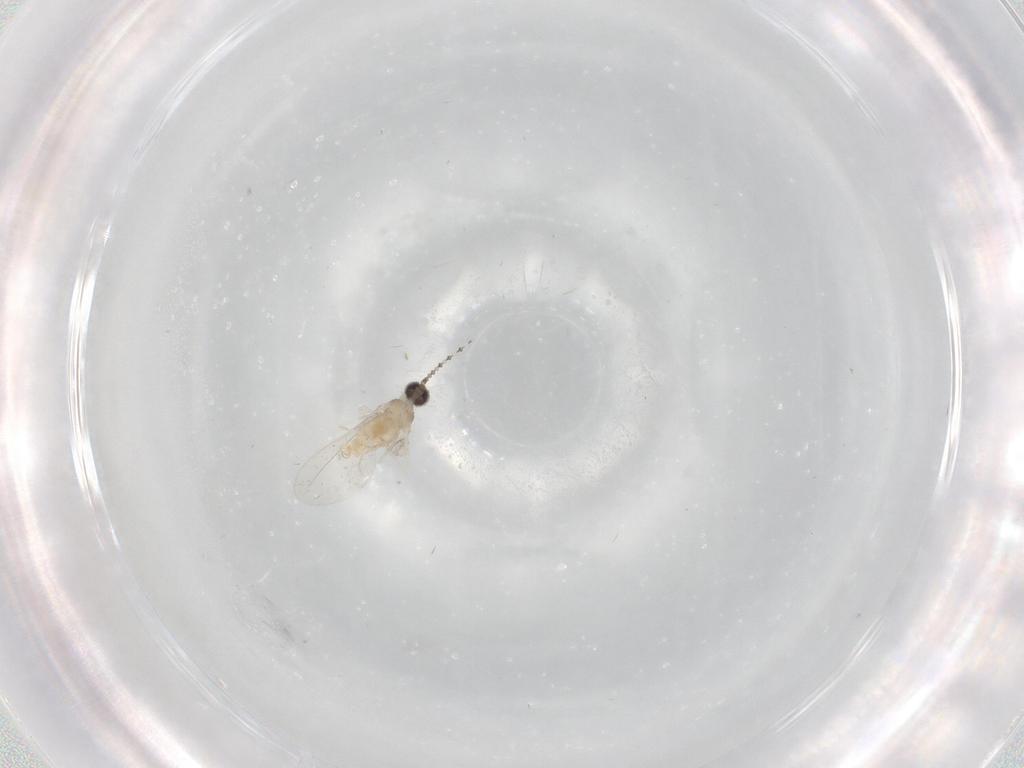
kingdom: Animalia
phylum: Arthropoda
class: Insecta
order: Diptera
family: Cecidomyiidae
